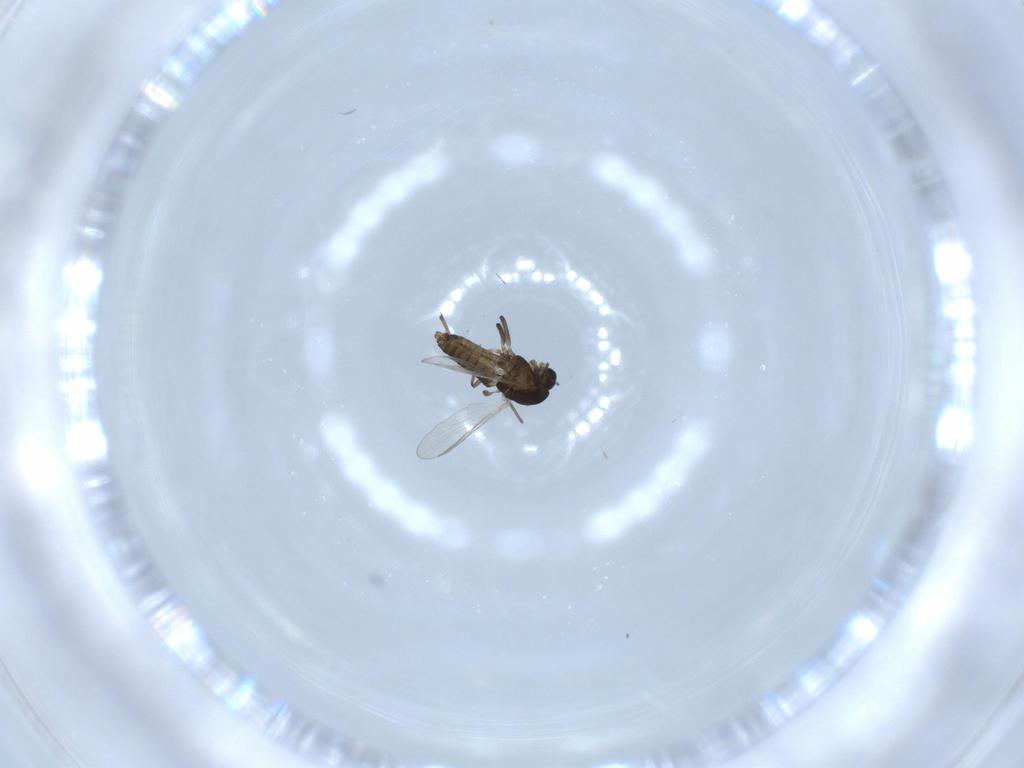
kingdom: Animalia
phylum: Arthropoda
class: Insecta
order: Diptera
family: Chironomidae
